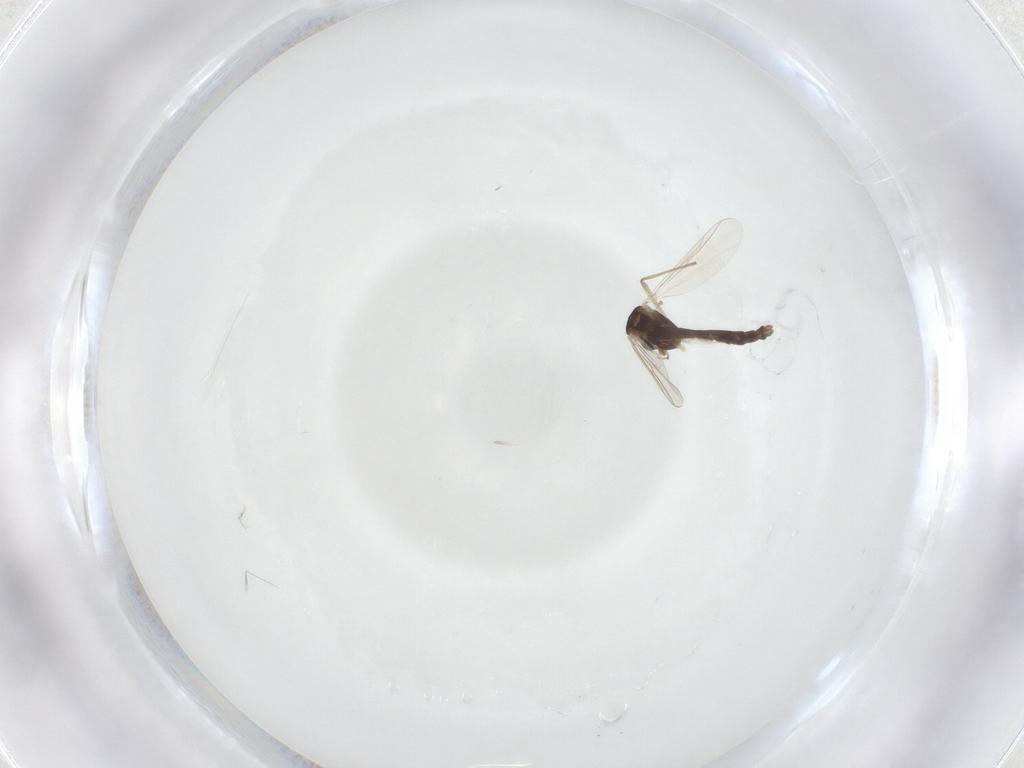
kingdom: Animalia
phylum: Arthropoda
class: Insecta
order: Diptera
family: Chironomidae
